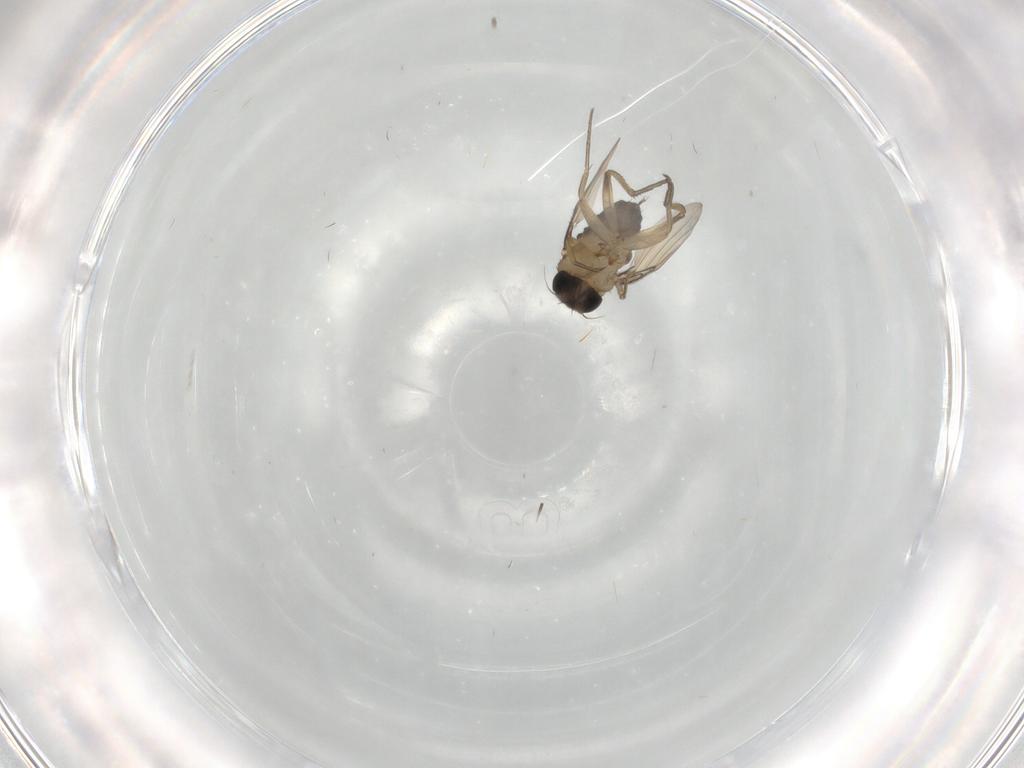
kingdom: Animalia
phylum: Arthropoda
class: Insecta
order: Diptera
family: Phoridae
